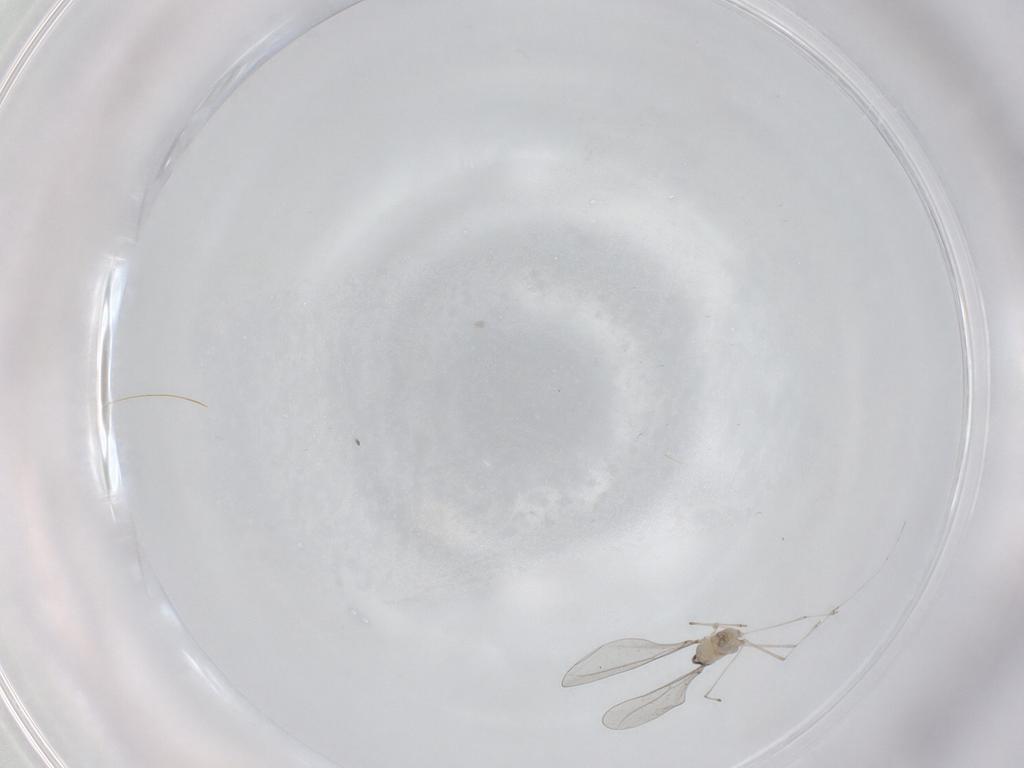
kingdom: Animalia
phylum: Arthropoda
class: Insecta
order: Diptera
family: Cecidomyiidae
